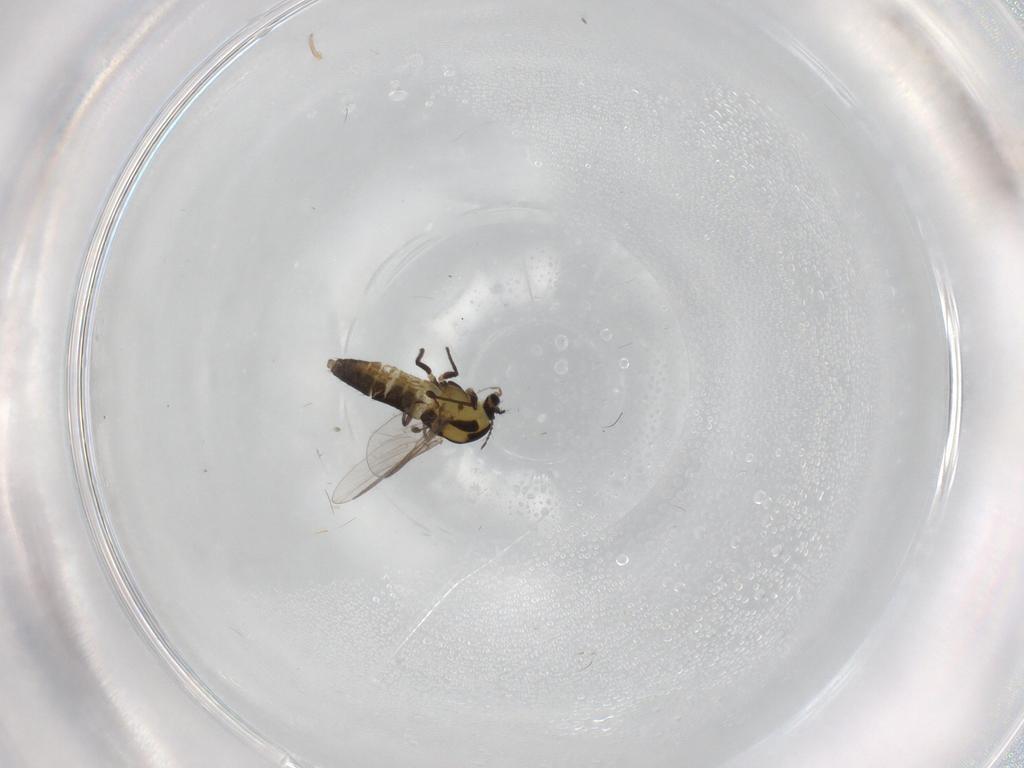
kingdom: Animalia
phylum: Arthropoda
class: Insecta
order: Diptera
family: Chironomidae
